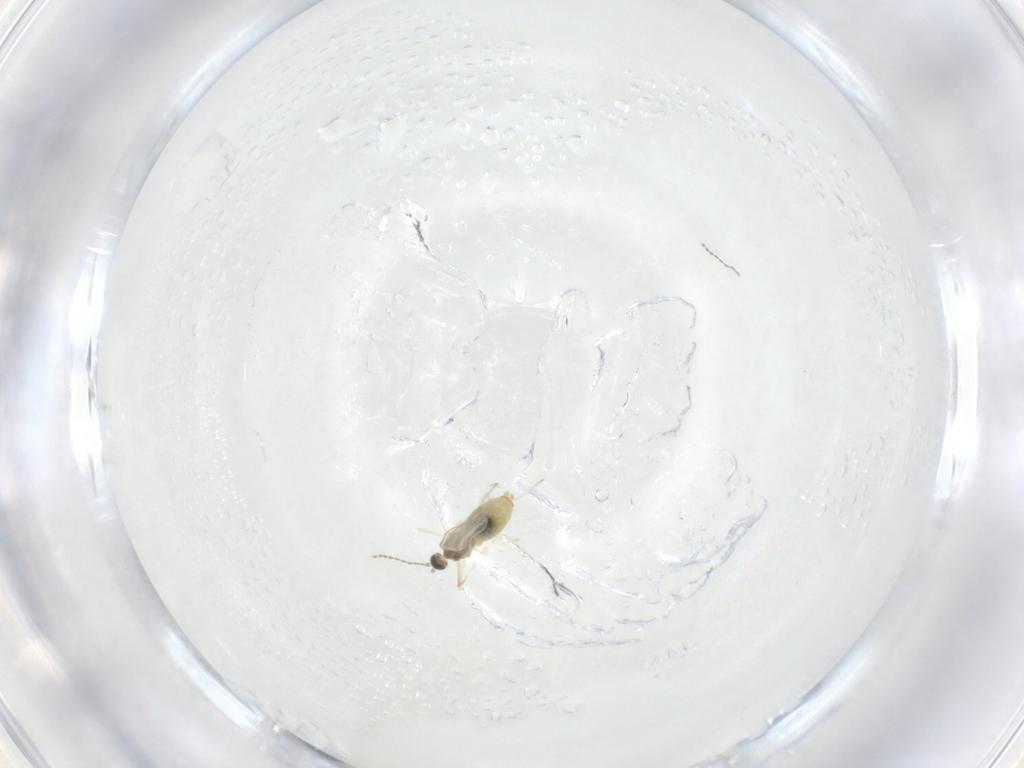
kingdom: Animalia
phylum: Arthropoda
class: Insecta
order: Diptera
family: Cecidomyiidae
